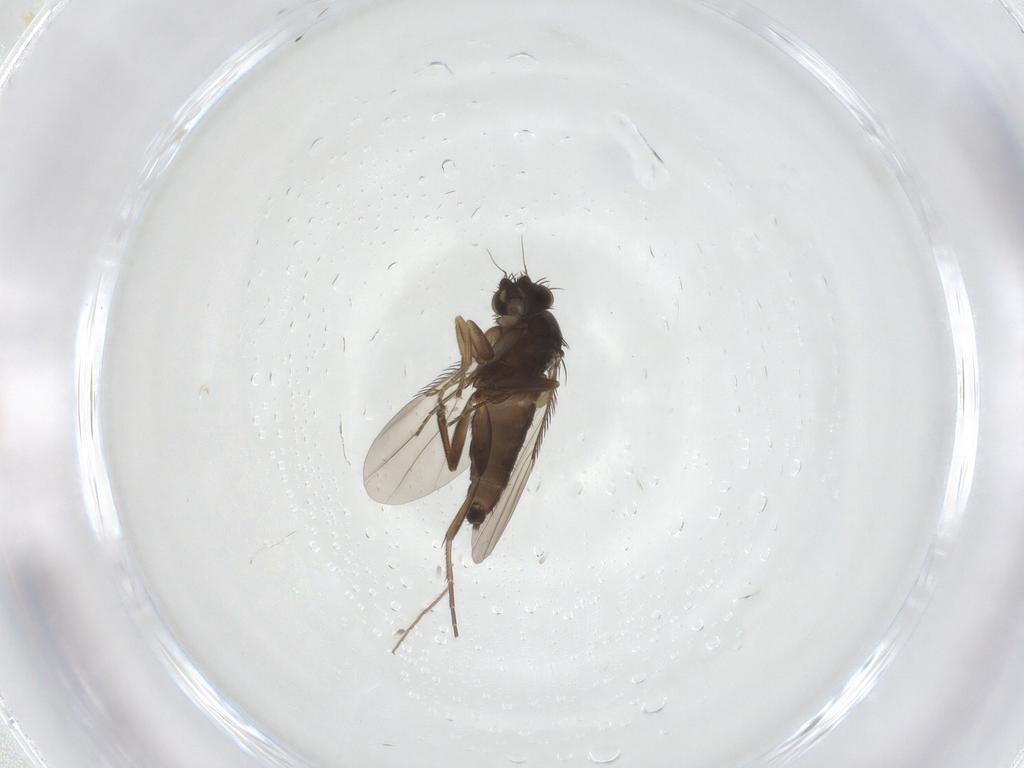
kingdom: Animalia
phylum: Arthropoda
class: Insecta
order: Diptera
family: Phoridae
